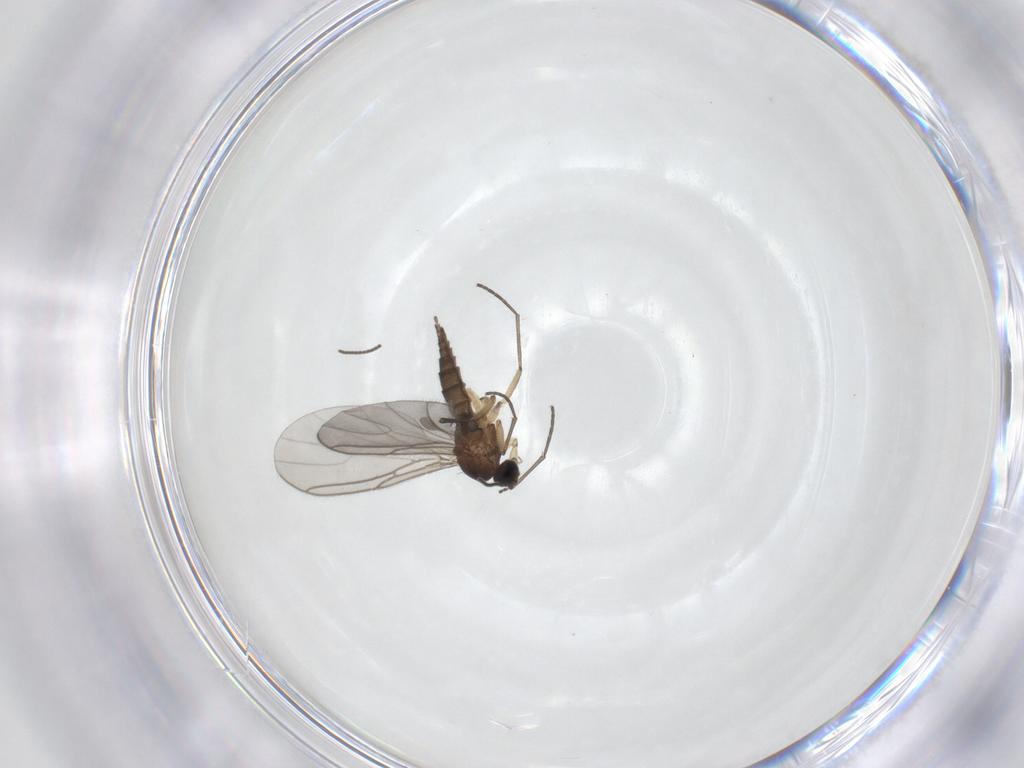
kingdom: Animalia
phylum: Arthropoda
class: Insecta
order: Diptera
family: Sciaridae
